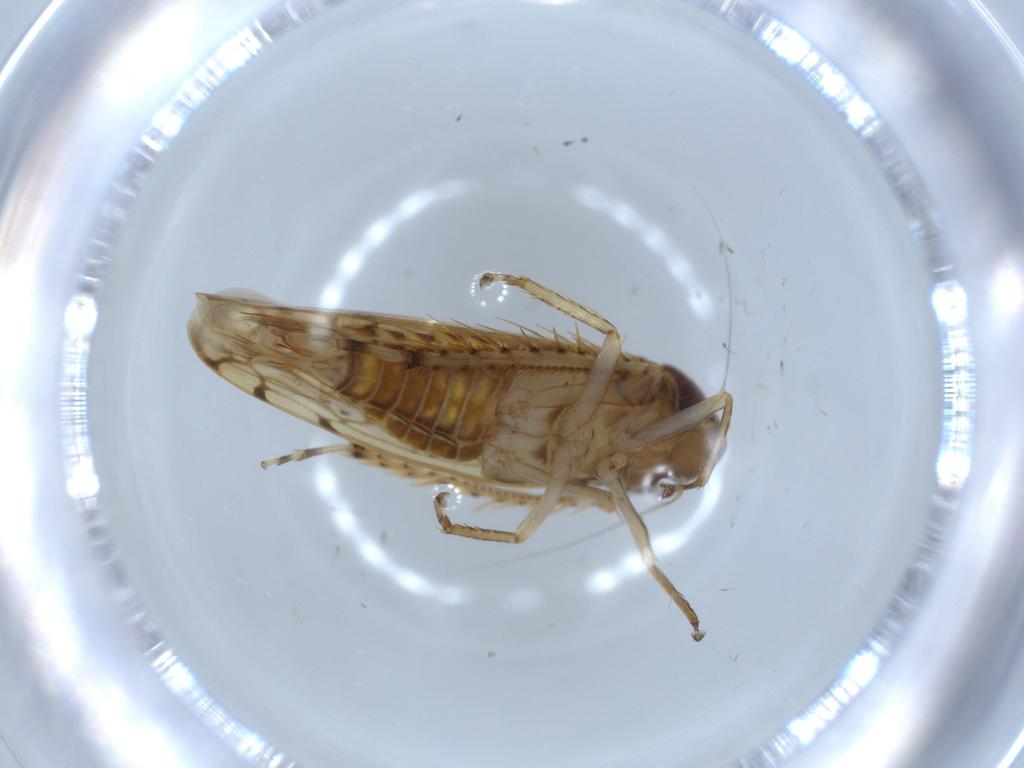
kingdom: Animalia
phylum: Arthropoda
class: Insecta
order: Hemiptera
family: Cicadellidae
